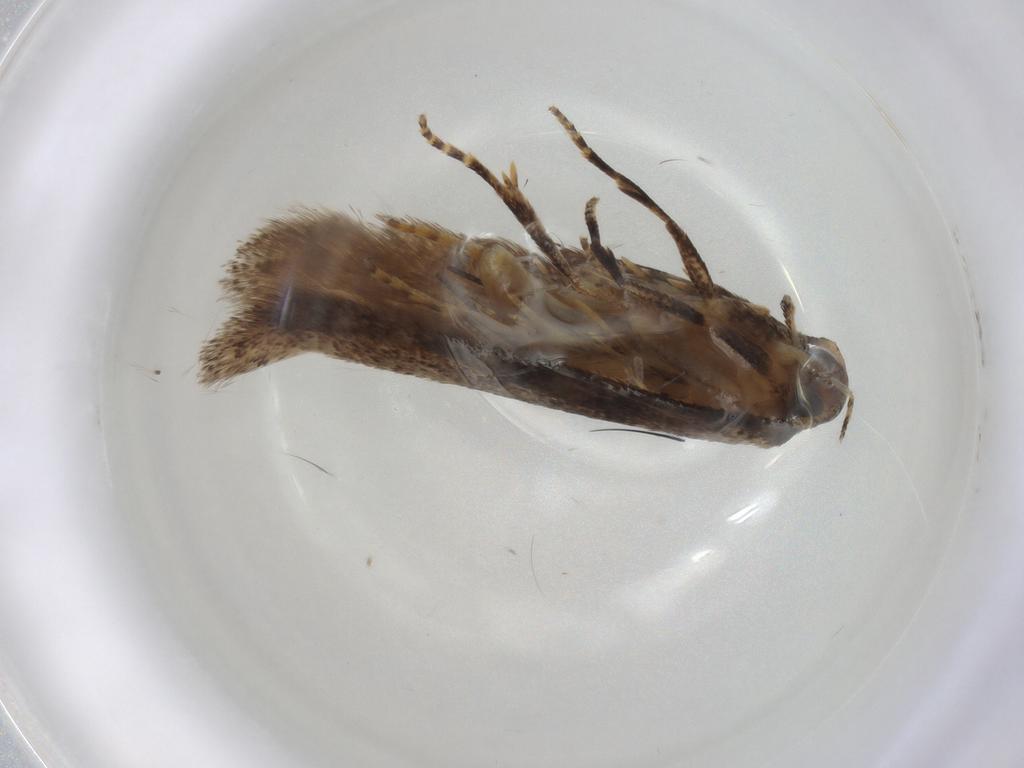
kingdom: Animalia
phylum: Arthropoda
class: Insecta
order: Lepidoptera
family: Gelechiidae
